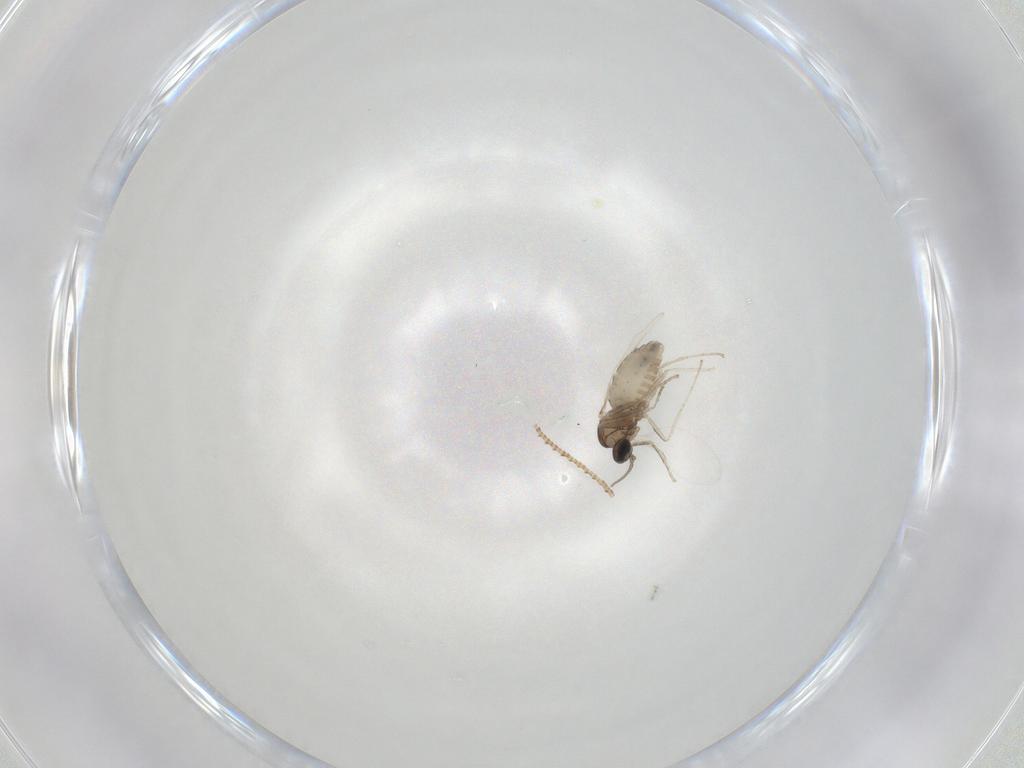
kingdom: Animalia
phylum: Arthropoda
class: Insecta
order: Diptera
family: Cecidomyiidae
